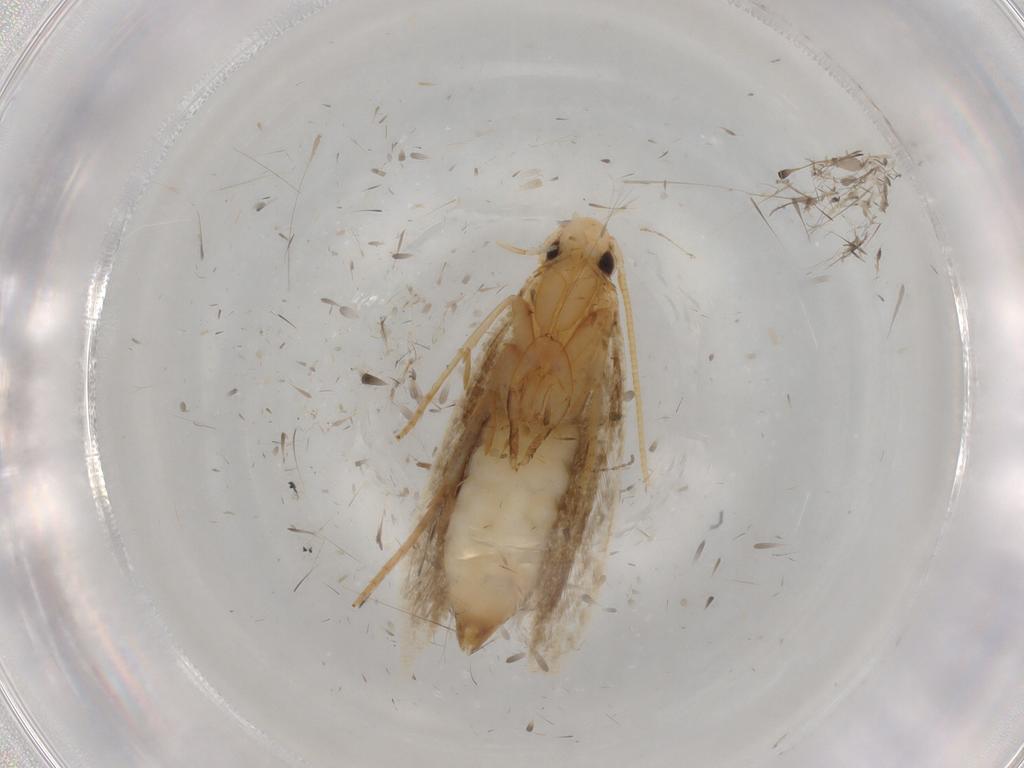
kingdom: Animalia
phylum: Arthropoda
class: Insecta
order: Lepidoptera
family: Tineidae
